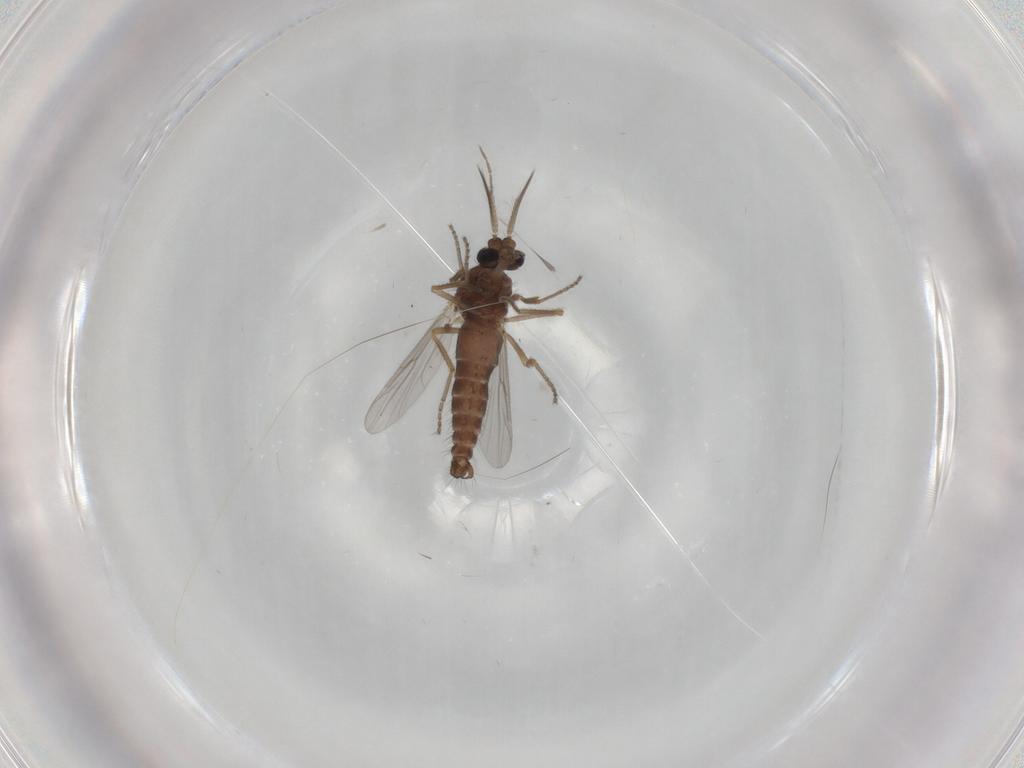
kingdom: Animalia
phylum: Arthropoda
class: Insecta
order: Diptera
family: Ceratopogonidae
